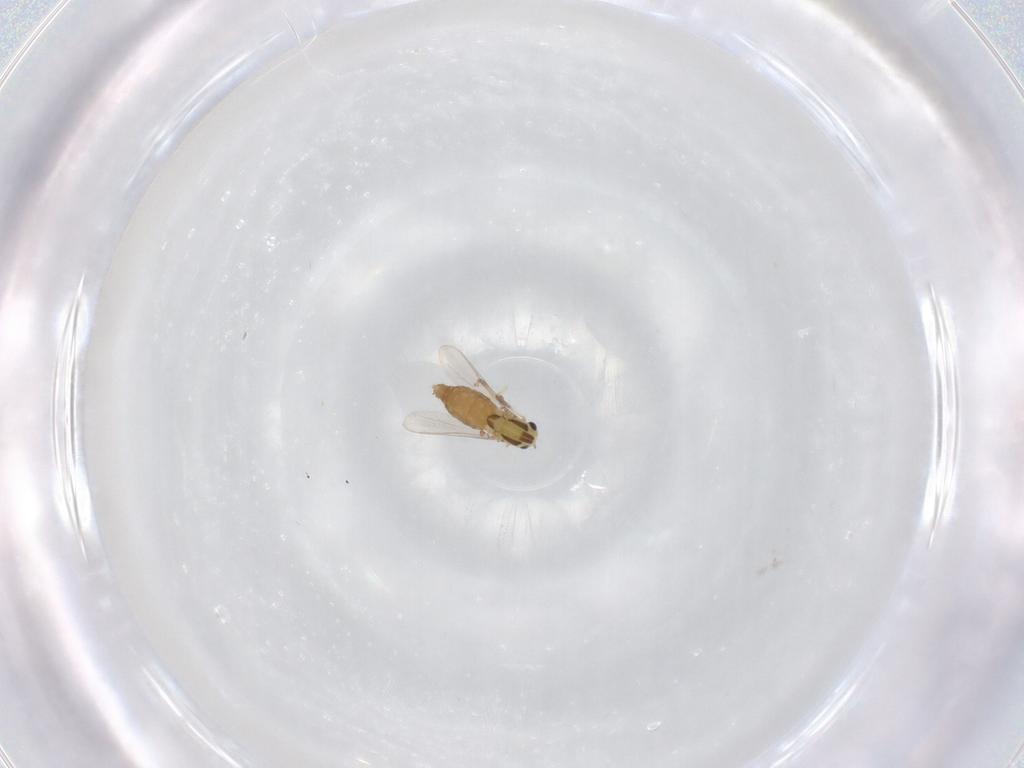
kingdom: Animalia
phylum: Arthropoda
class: Insecta
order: Diptera
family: Chironomidae
